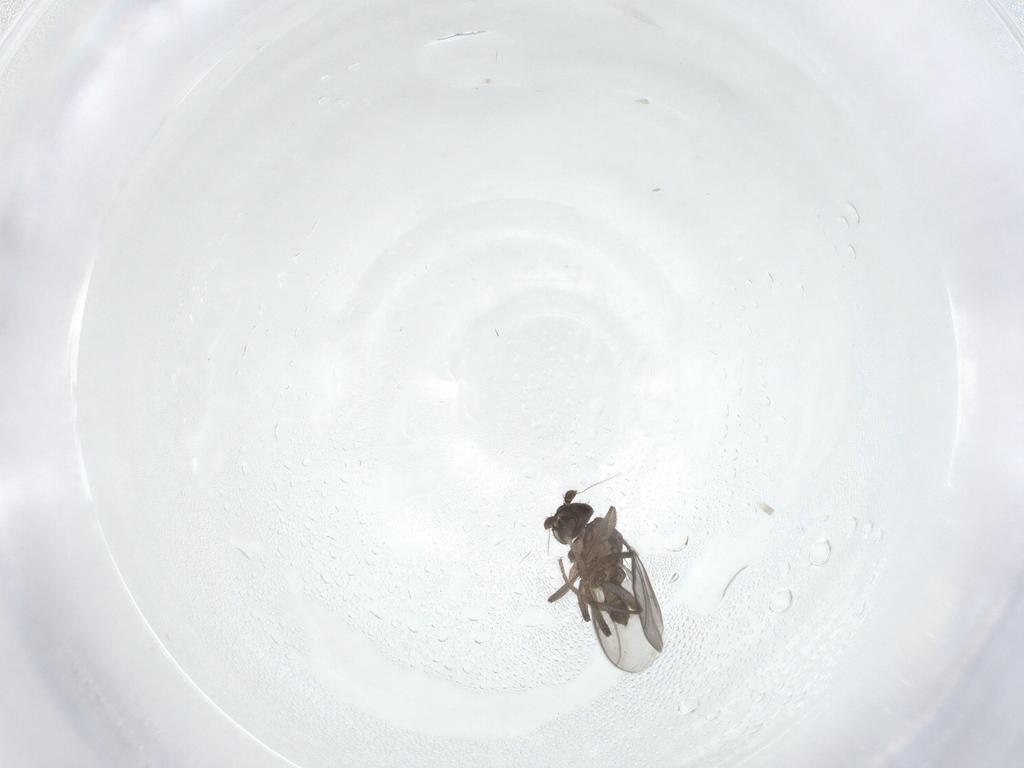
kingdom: Animalia
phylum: Arthropoda
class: Insecta
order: Diptera
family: Sphaeroceridae
